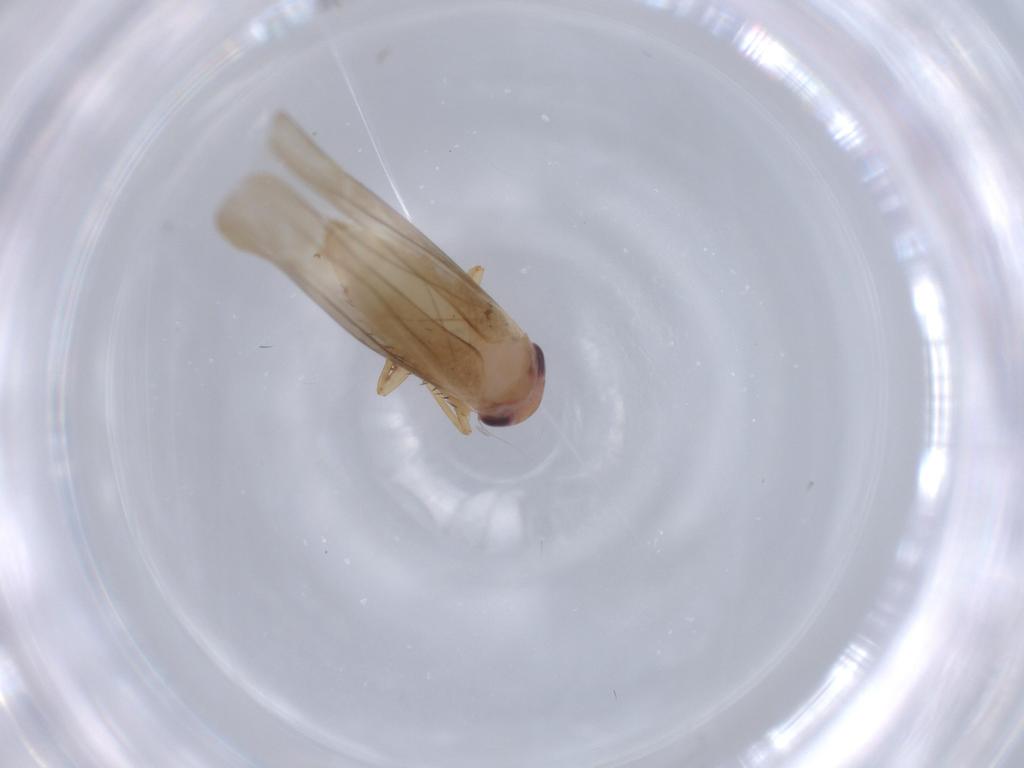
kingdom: Animalia
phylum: Arthropoda
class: Insecta
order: Hemiptera
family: Cicadellidae
